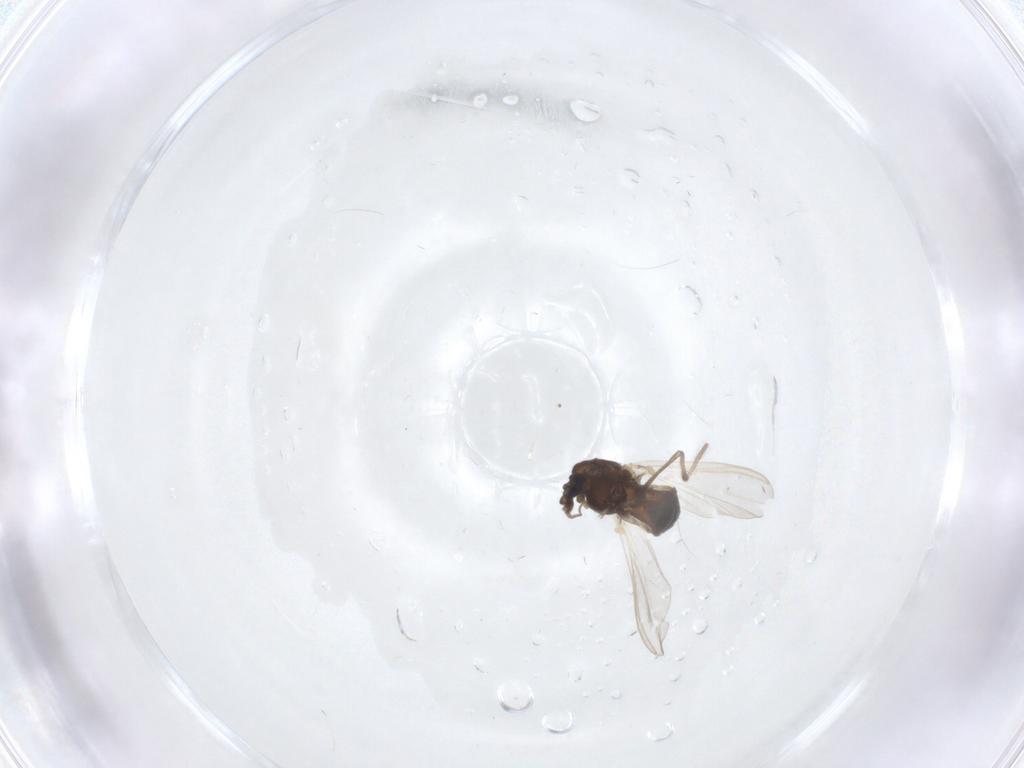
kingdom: Animalia
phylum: Arthropoda
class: Insecta
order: Diptera
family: Chironomidae
